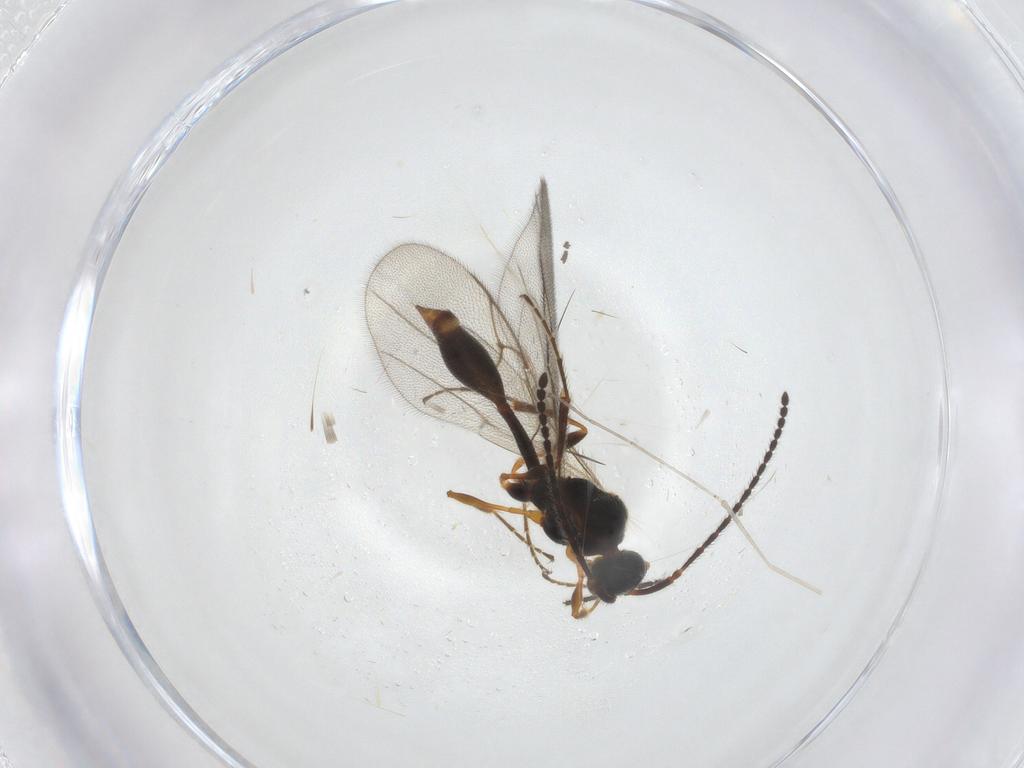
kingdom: Animalia
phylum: Arthropoda
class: Insecta
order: Hymenoptera
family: Diapriidae
